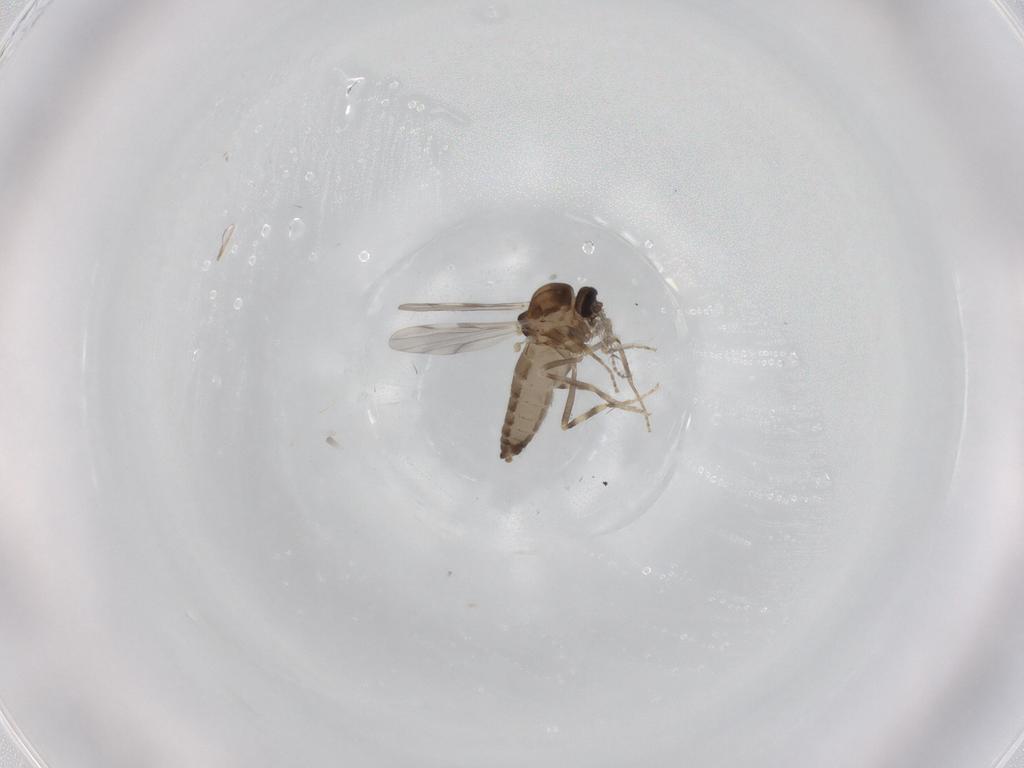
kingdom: Animalia
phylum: Arthropoda
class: Insecta
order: Diptera
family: Ceratopogonidae
